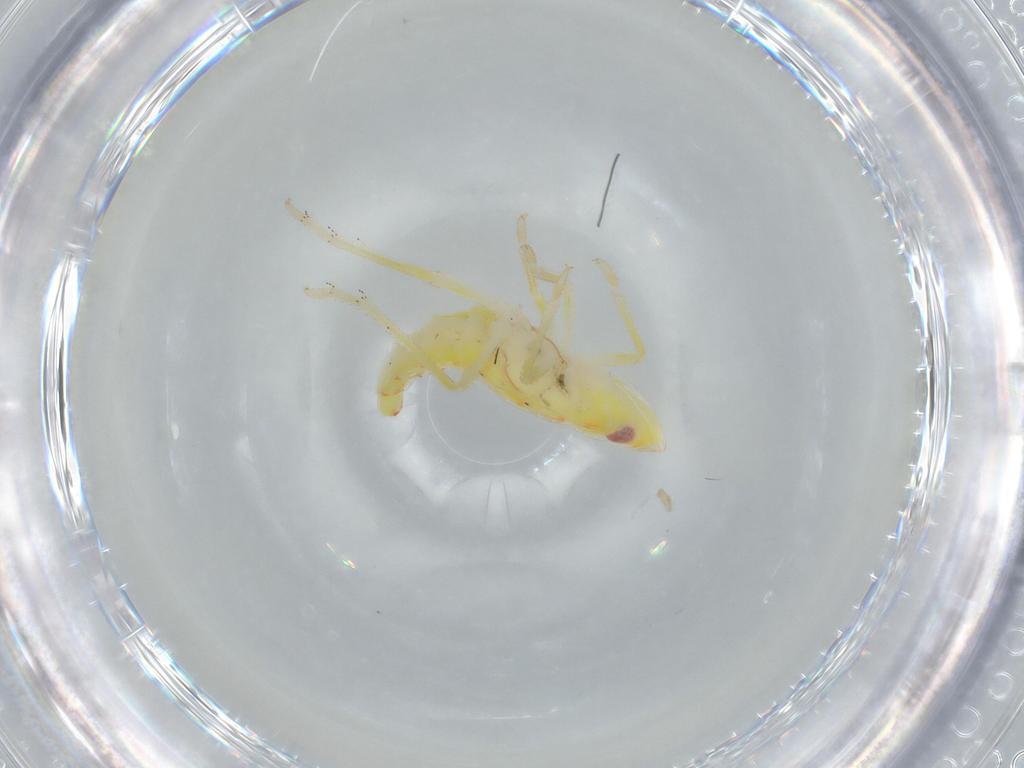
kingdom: Animalia
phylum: Arthropoda
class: Insecta
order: Hemiptera
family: Tropiduchidae
